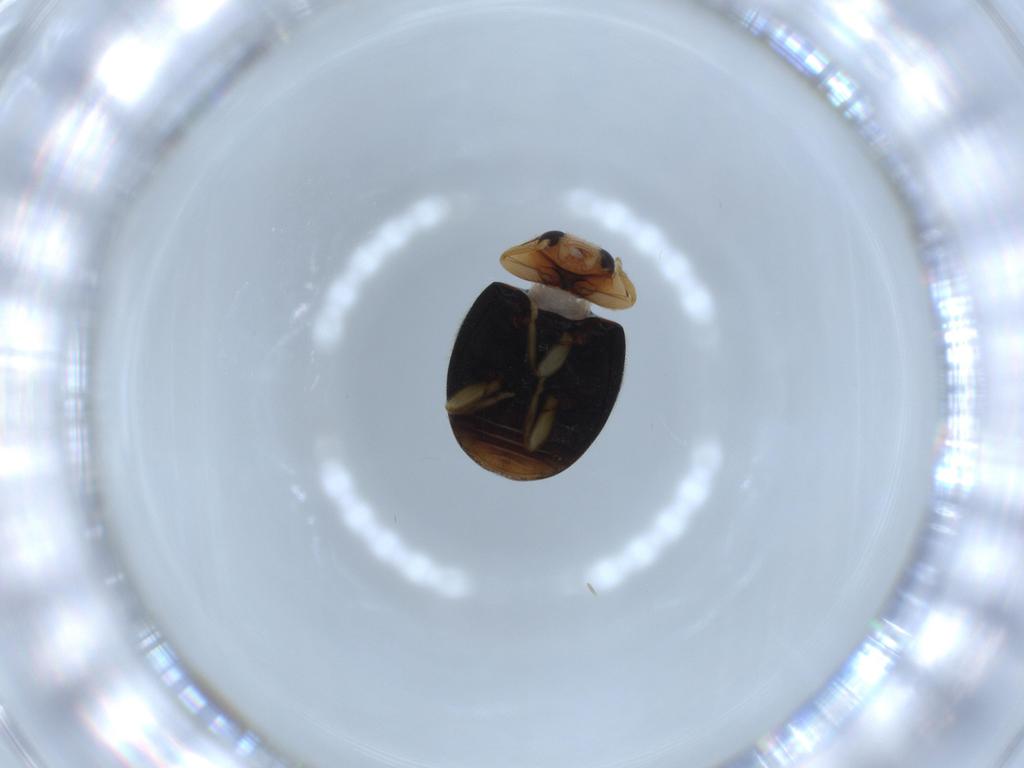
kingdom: Animalia
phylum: Arthropoda
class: Insecta
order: Coleoptera
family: Coccinellidae
